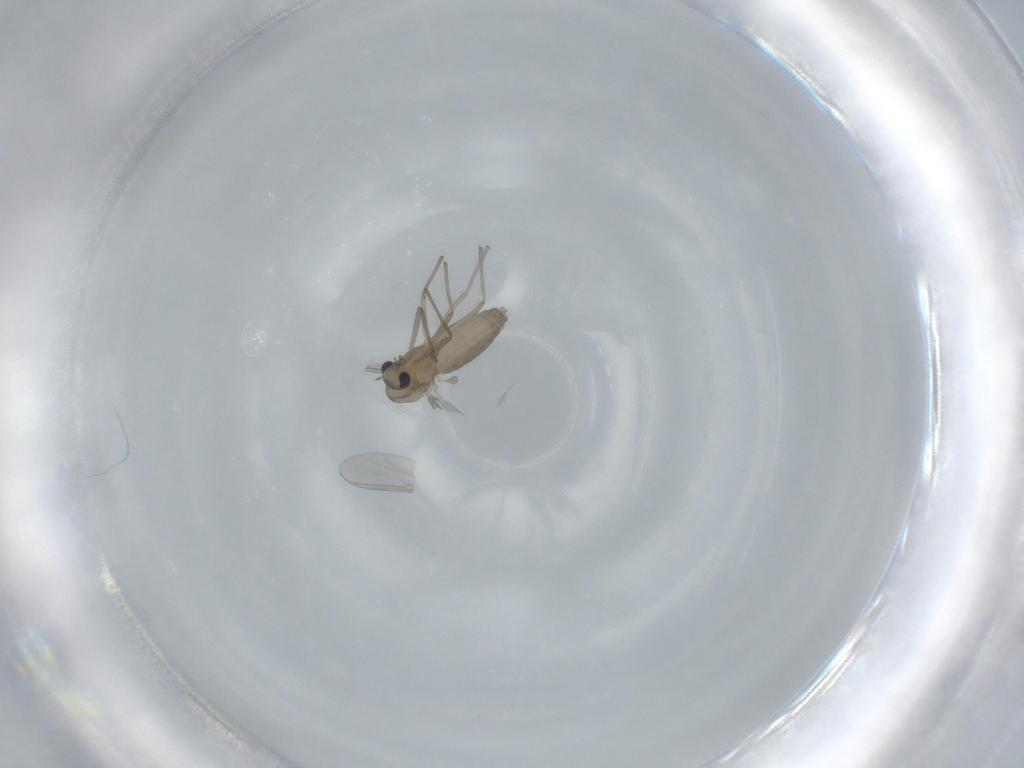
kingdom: Animalia
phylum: Arthropoda
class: Insecta
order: Diptera
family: Chironomidae
